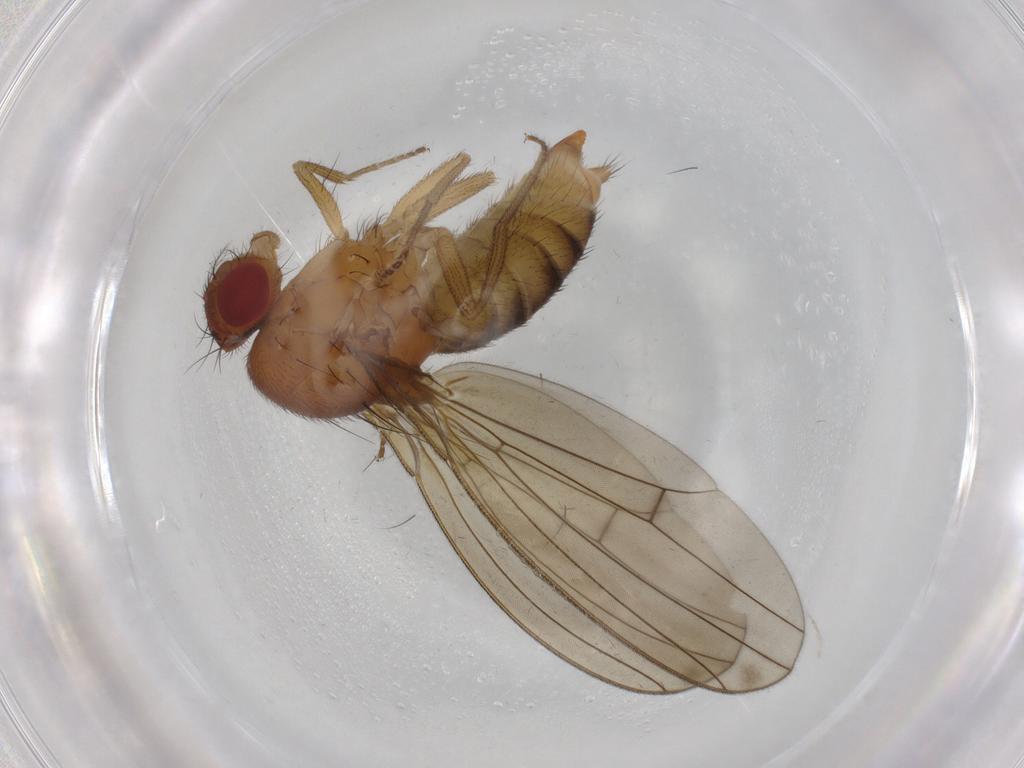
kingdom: Animalia
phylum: Arthropoda
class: Insecta
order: Diptera
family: Drosophilidae
